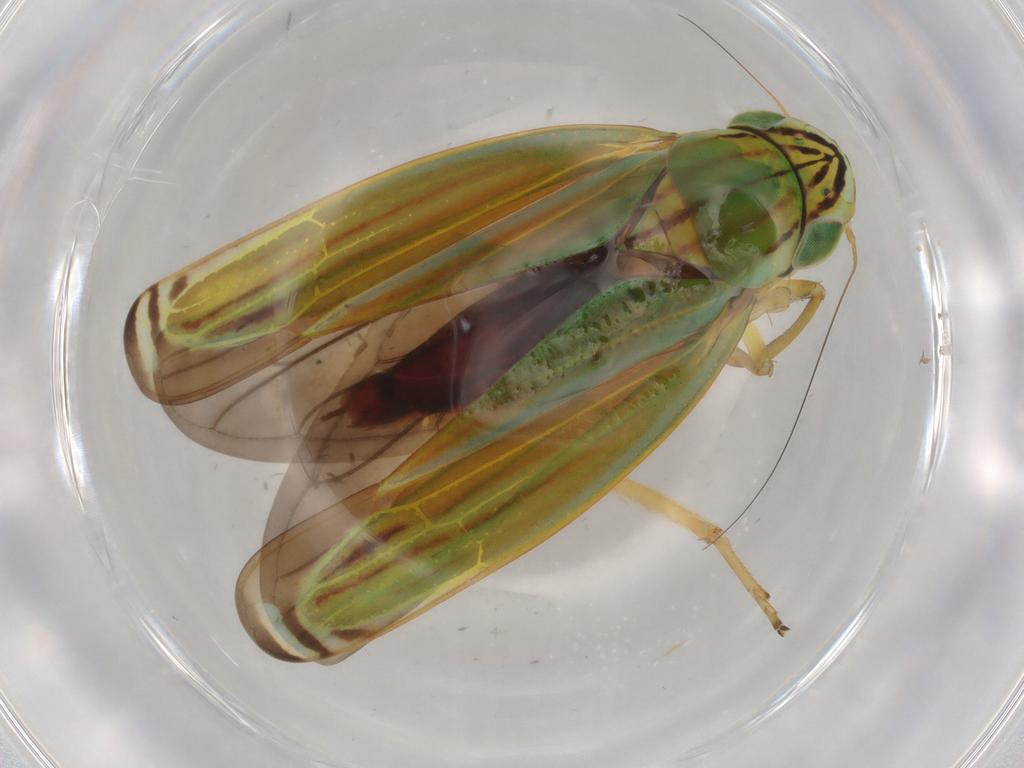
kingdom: Animalia
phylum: Arthropoda
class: Insecta
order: Hemiptera
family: Cicadellidae
